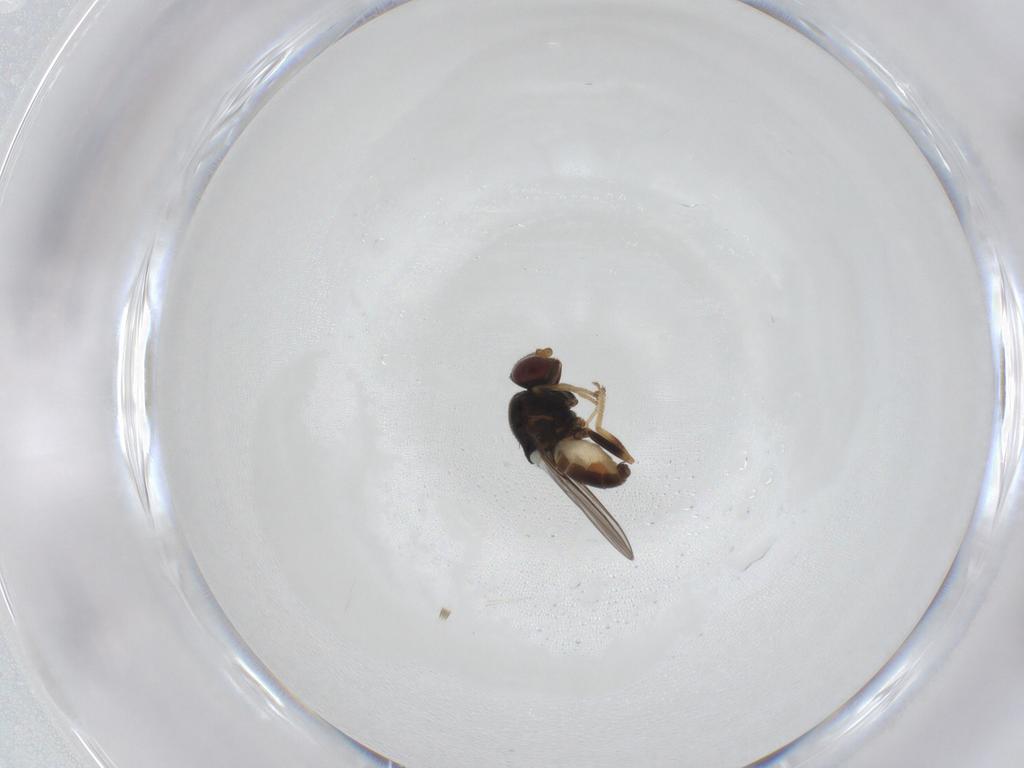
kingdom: Animalia
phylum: Arthropoda
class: Insecta
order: Diptera
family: Chloropidae
